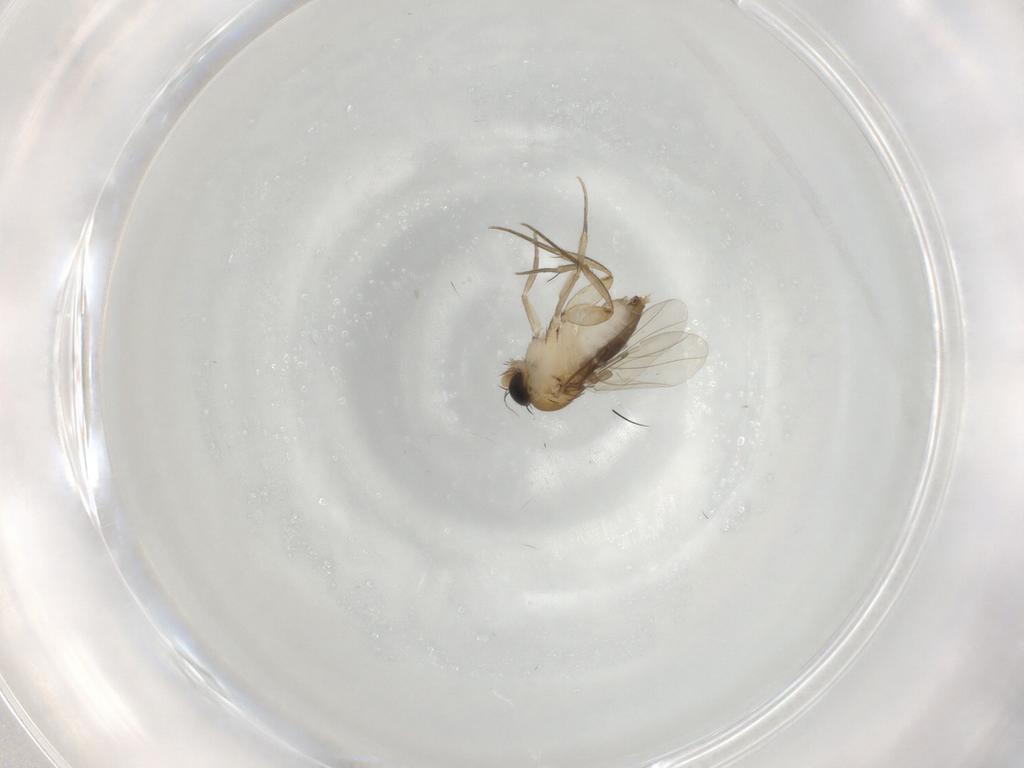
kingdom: Animalia
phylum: Arthropoda
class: Insecta
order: Diptera
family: Phoridae
